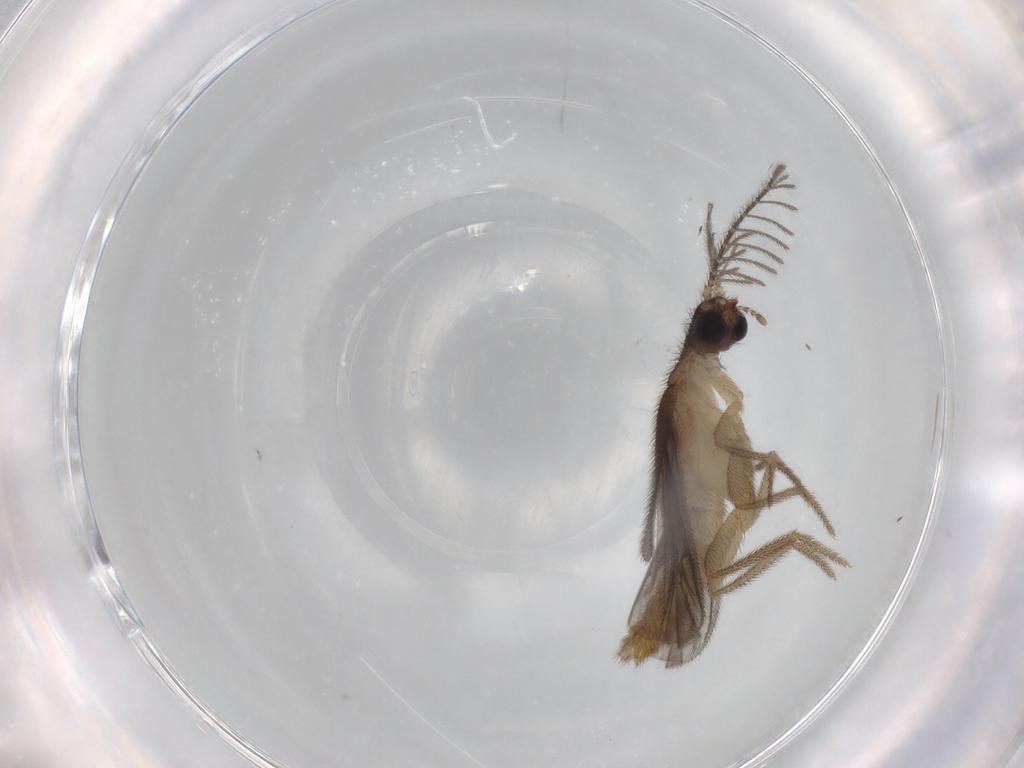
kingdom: Animalia
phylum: Arthropoda
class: Insecta
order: Coleoptera
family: Phengodidae
